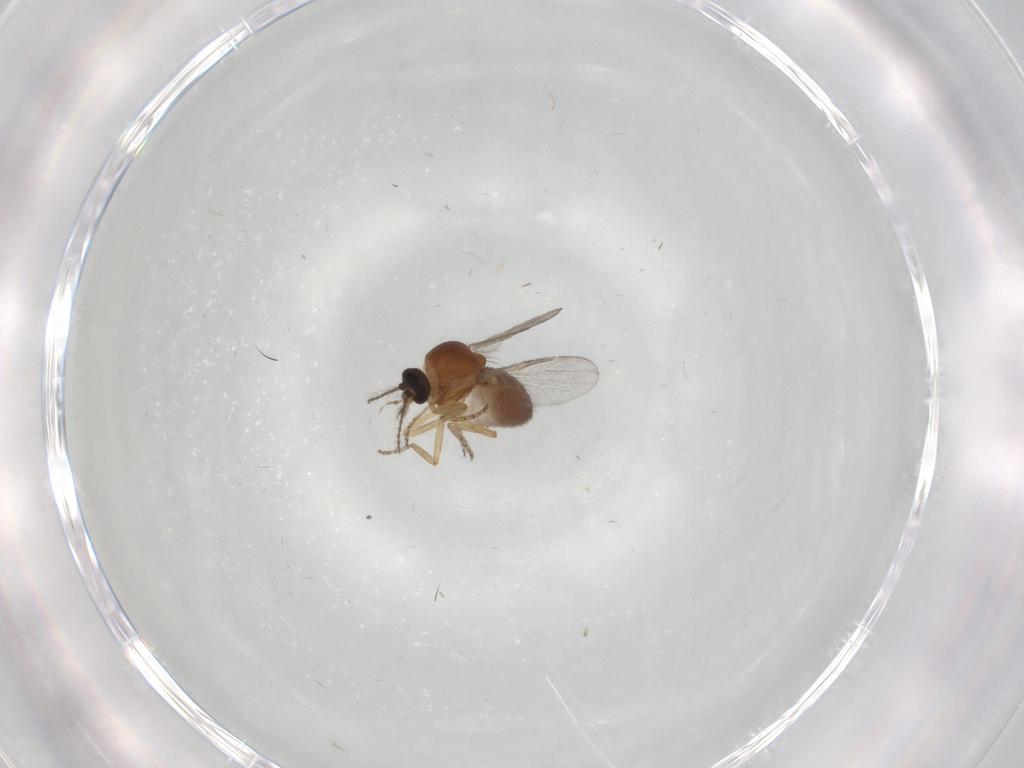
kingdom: Animalia
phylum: Arthropoda
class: Insecta
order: Diptera
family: Ceratopogonidae
